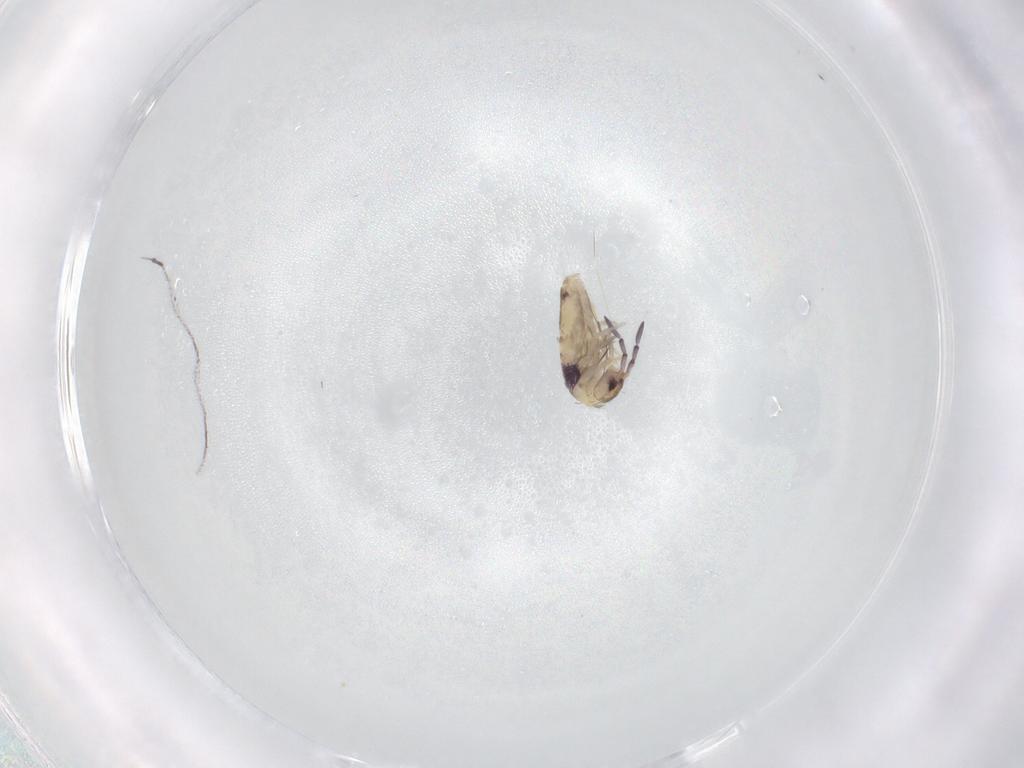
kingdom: Animalia
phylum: Arthropoda
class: Collembola
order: Entomobryomorpha
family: Entomobryidae
